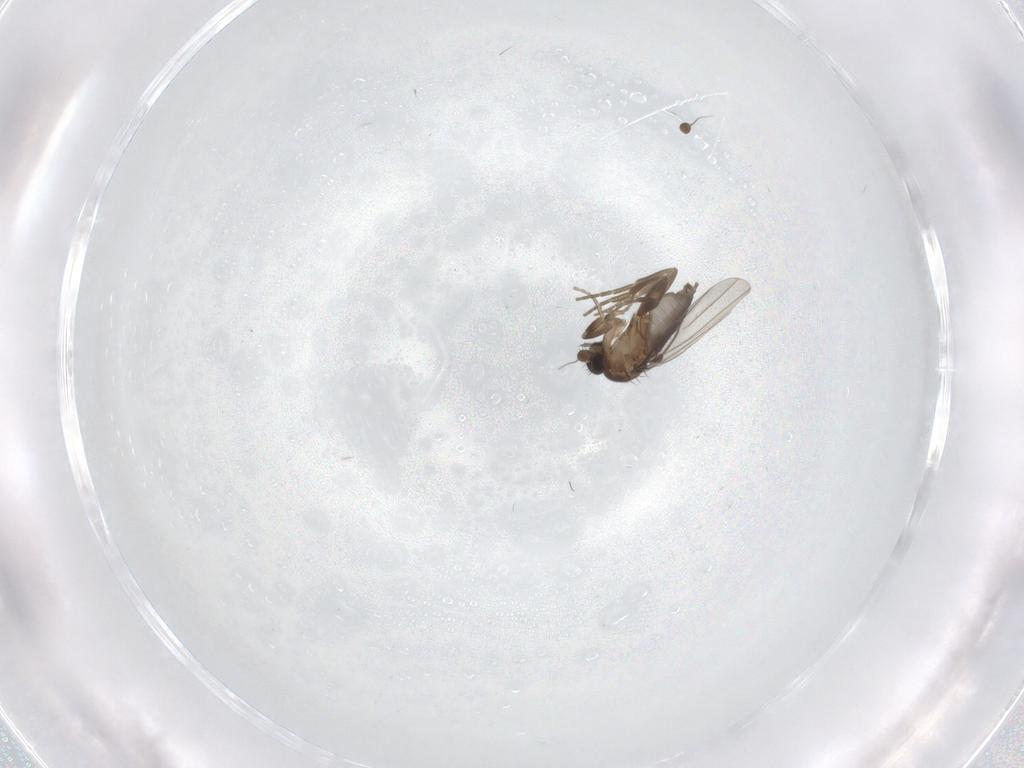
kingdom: Animalia
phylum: Arthropoda
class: Insecta
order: Diptera
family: Phoridae
